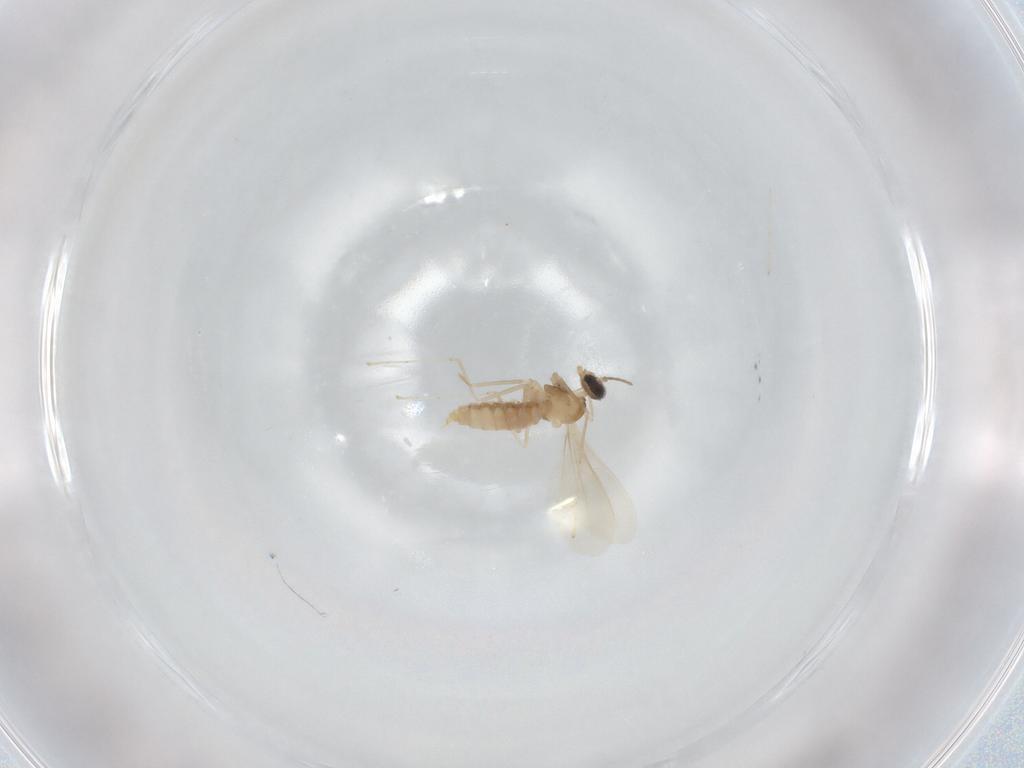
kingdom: Animalia
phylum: Arthropoda
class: Insecta
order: Diptera
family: Cecidomyiidae
